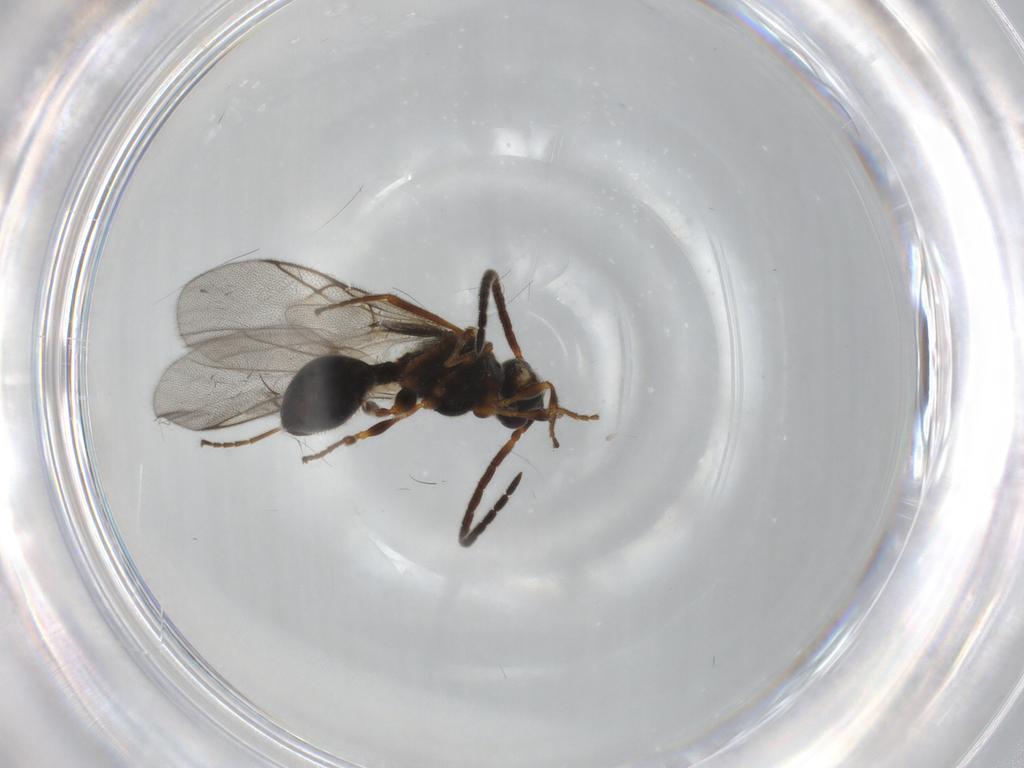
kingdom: Animalia
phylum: Arthropoda
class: Insecta
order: Hymenoptera
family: Diapriidae
